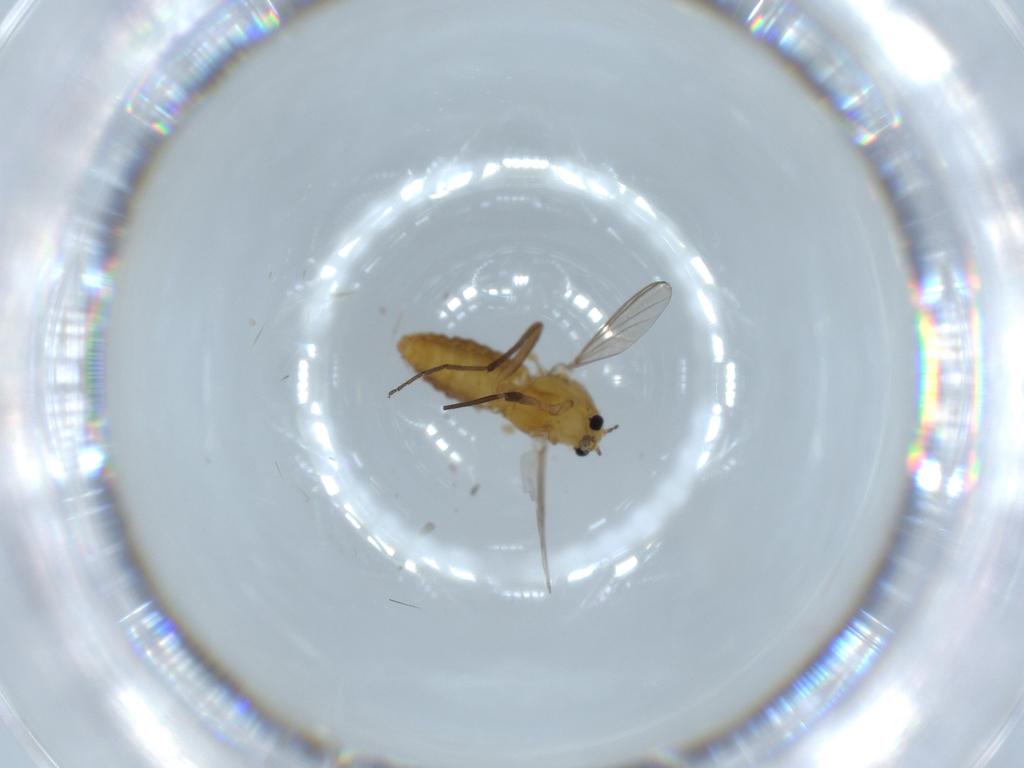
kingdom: Animalia
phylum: Arthropoda
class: Insecta
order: Diptera
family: Chironomidae
